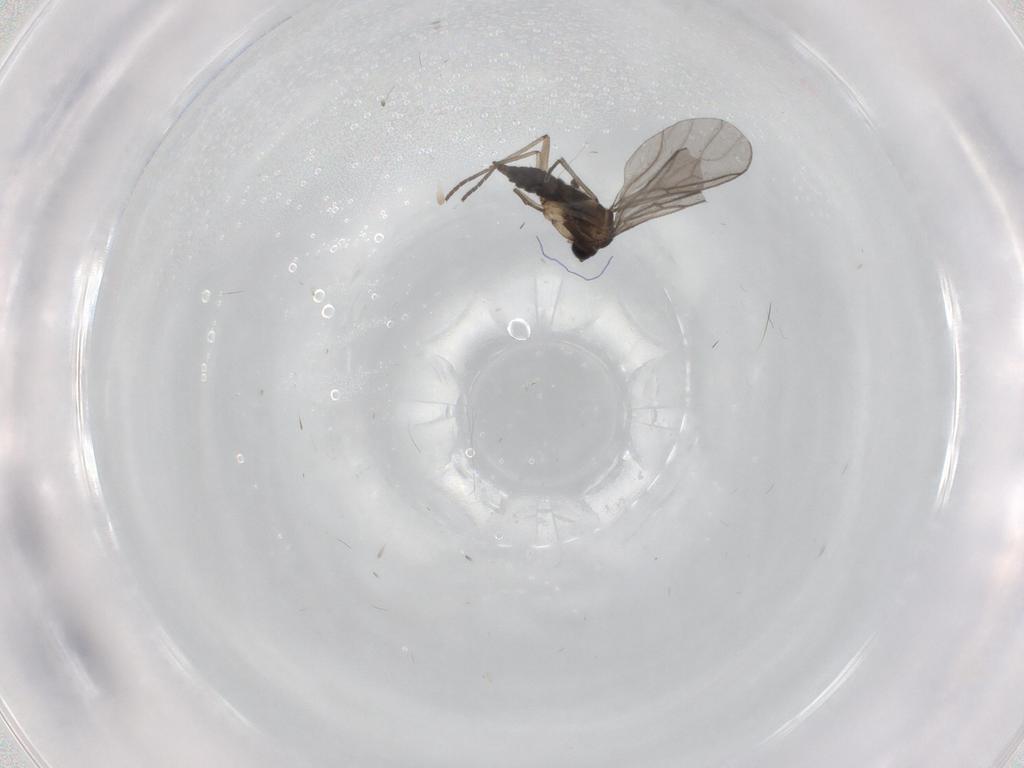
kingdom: Animalia
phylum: Arthropoda
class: Insecta
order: Diptera
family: Sciaridae
